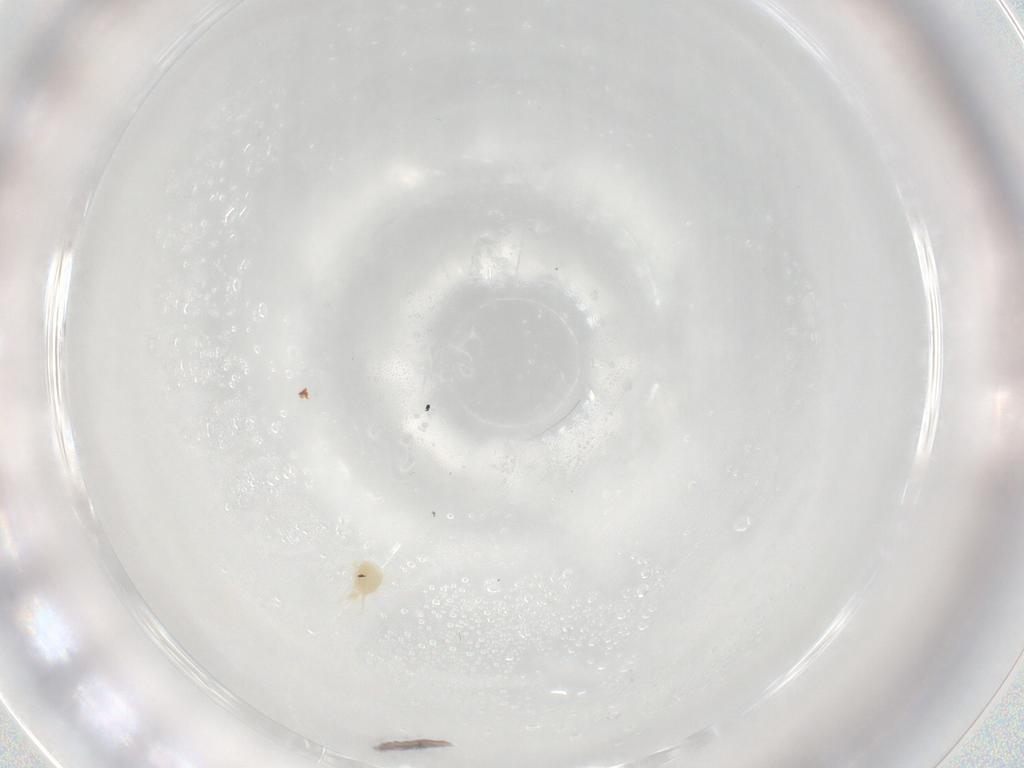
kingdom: Animalia
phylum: Arthropoda
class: Arachnida
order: Trombidiformes
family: Eupodidae
